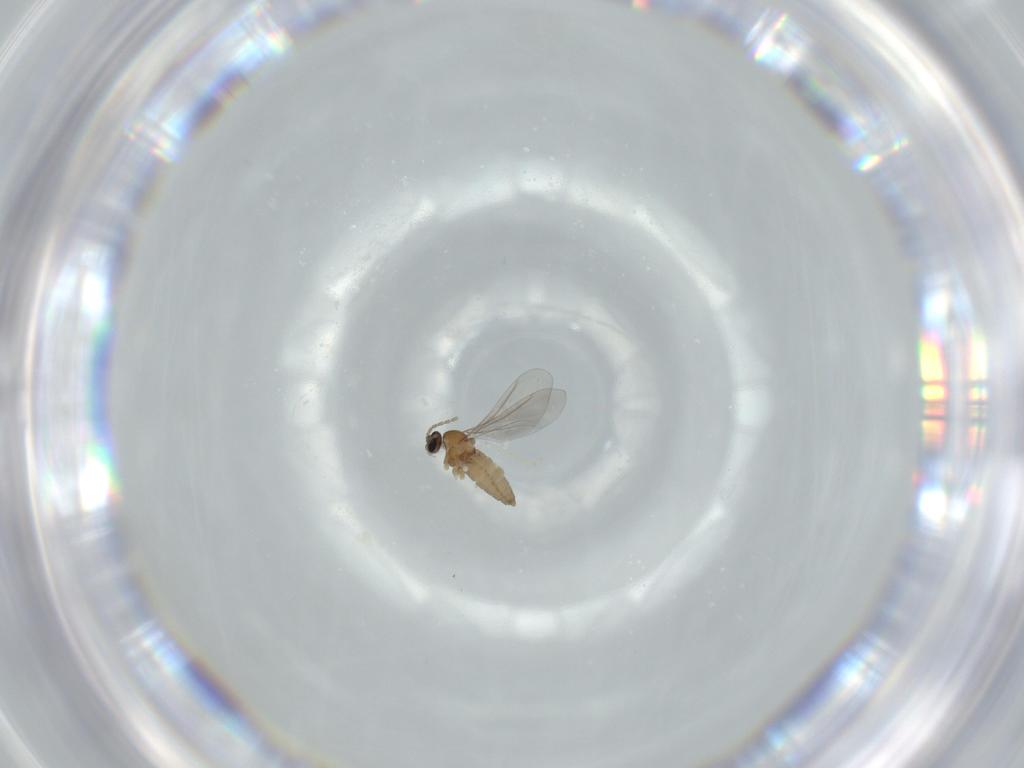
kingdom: Animalia
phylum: Arthropoda
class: Insecta
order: Diptera
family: Cecidomyiidae
